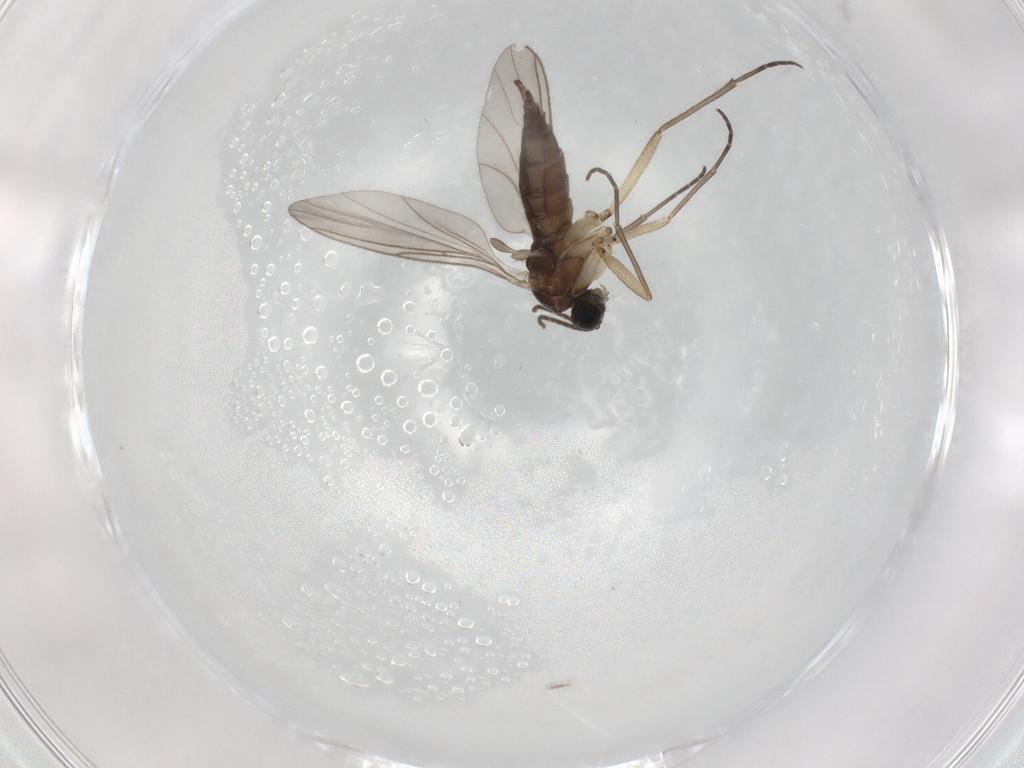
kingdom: Animalia
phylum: Arthropoda
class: Insecta
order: Diptera
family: Sciaridae
